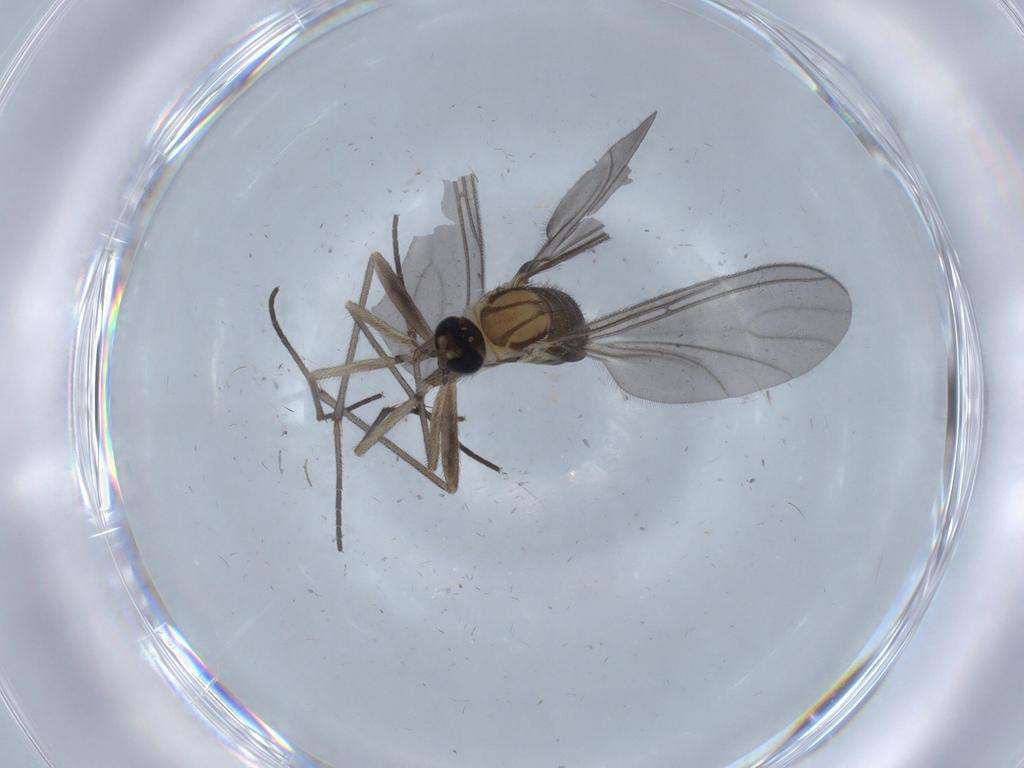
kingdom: Animalia
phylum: Arthropoda
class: Insecta
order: Diptera
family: Sciaridae
